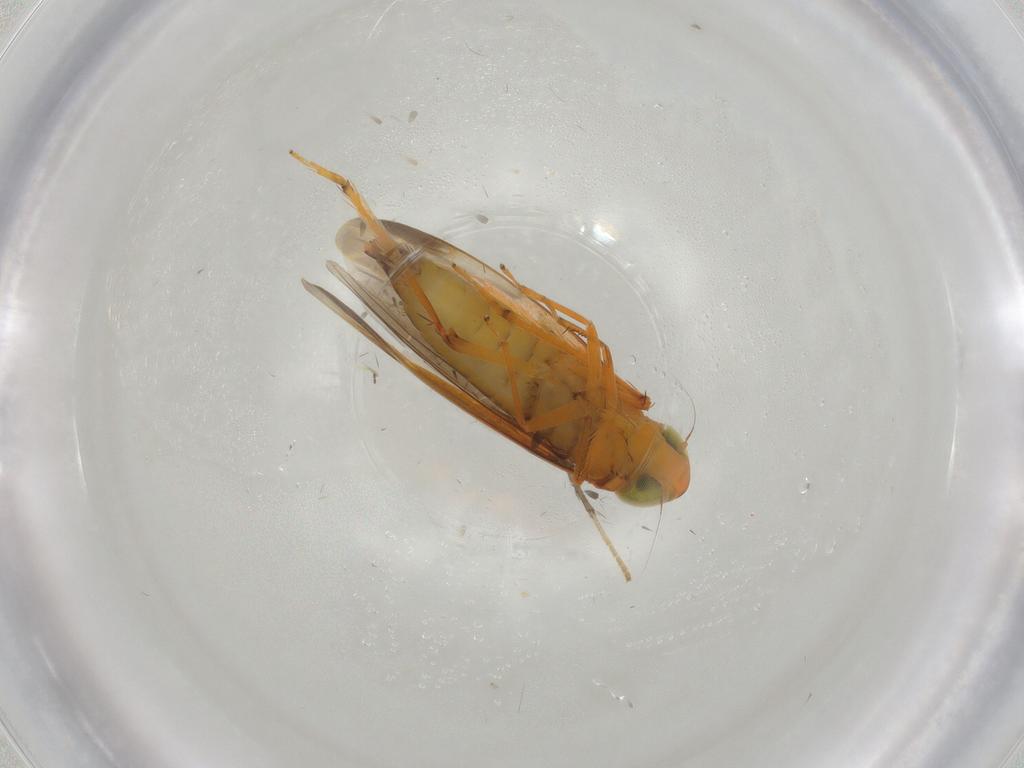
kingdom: Animalia
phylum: Arthropoda
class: Insecta
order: Hemiptera
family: Cicadellidae
